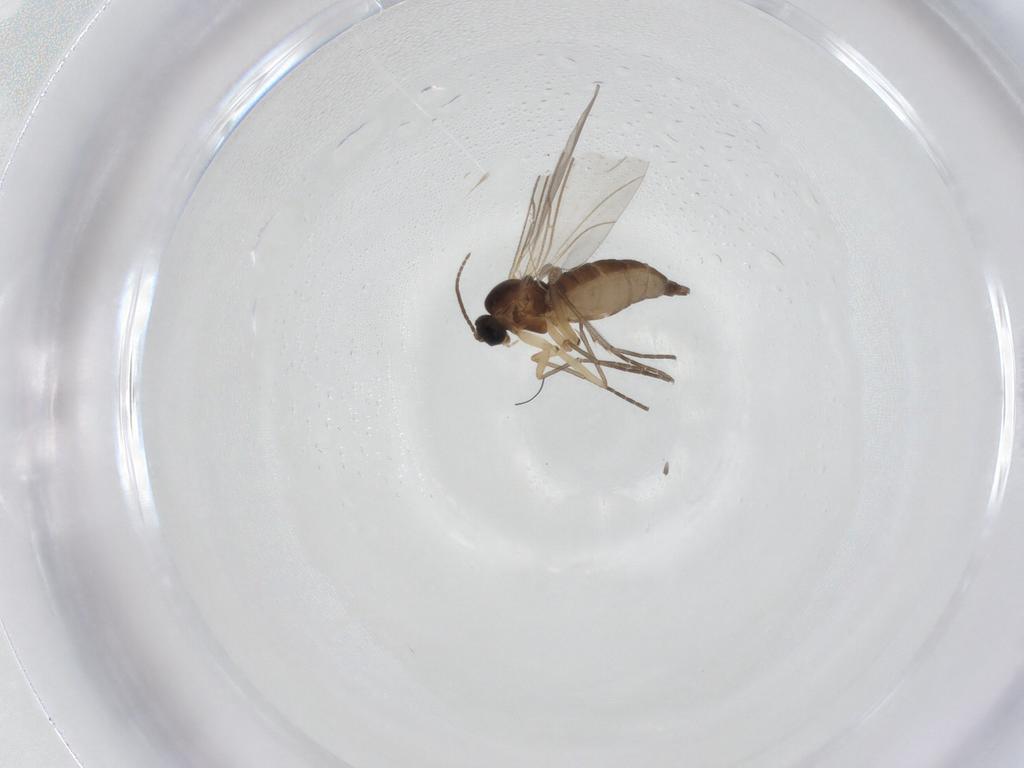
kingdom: Animalia
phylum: Arthropoda
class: Insecta
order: Diptera
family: Sciaridae
